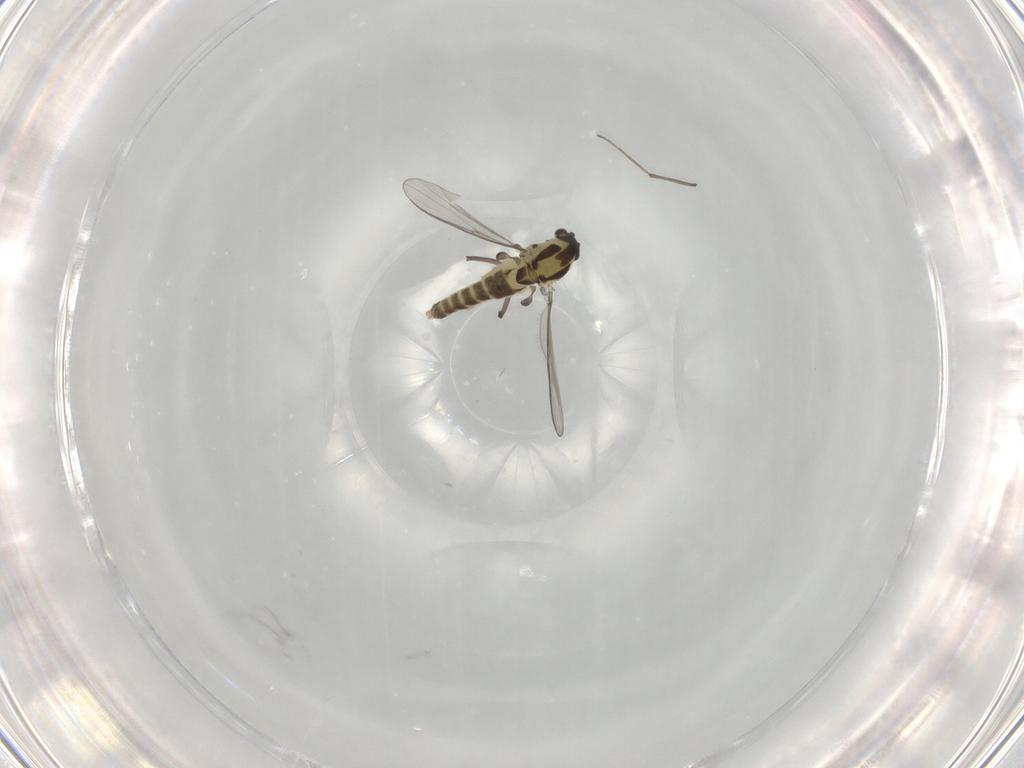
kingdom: Animalia
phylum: Arthropoda
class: Insecta
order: Diptera
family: Chironomidae
